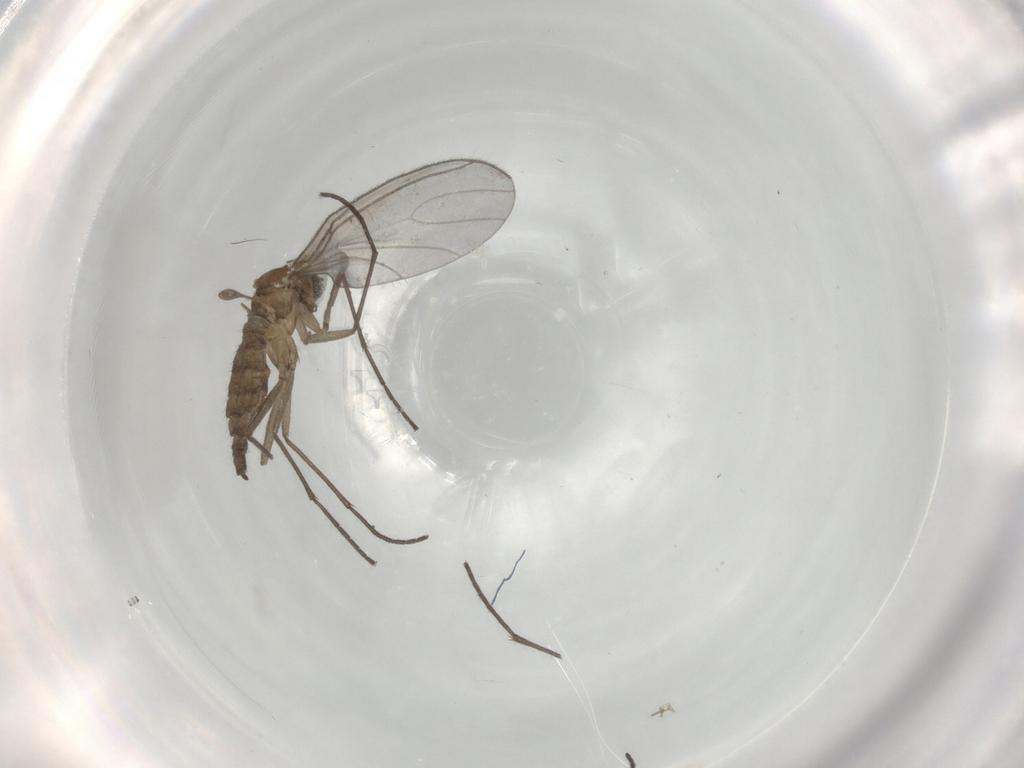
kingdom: Animalia
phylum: Arthropoda
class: Insecta
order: Diptera
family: Sciaridae
